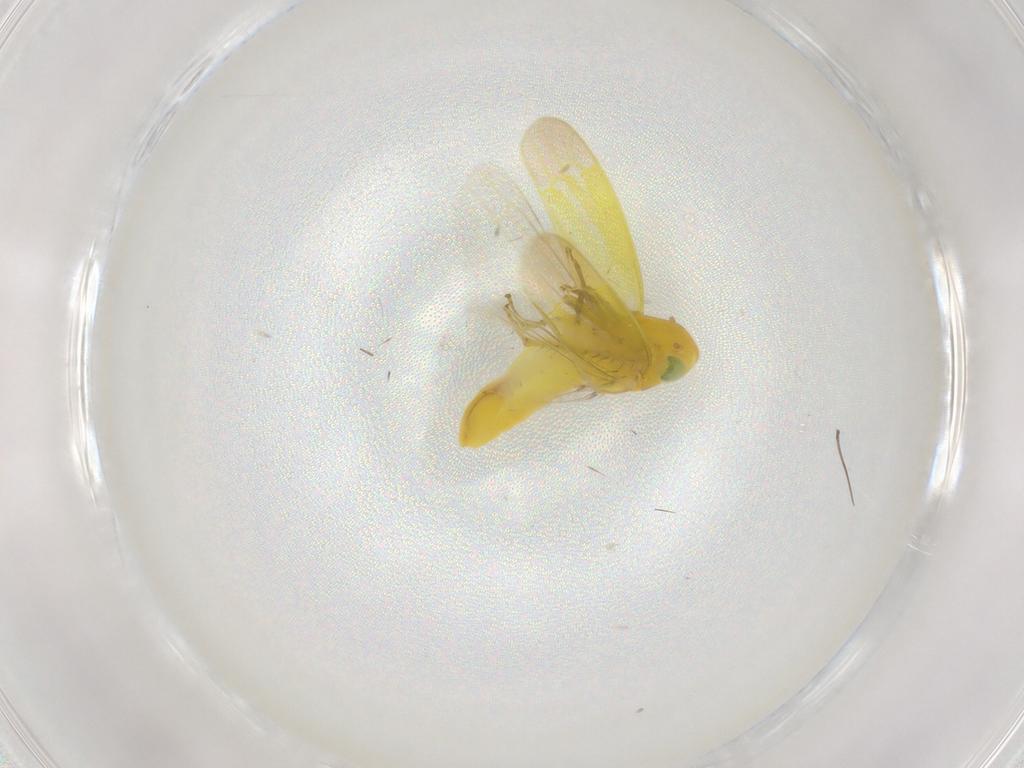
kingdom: Animalia
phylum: Arthropoda
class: Insecta
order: Hemiptera
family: Cicadellidae
